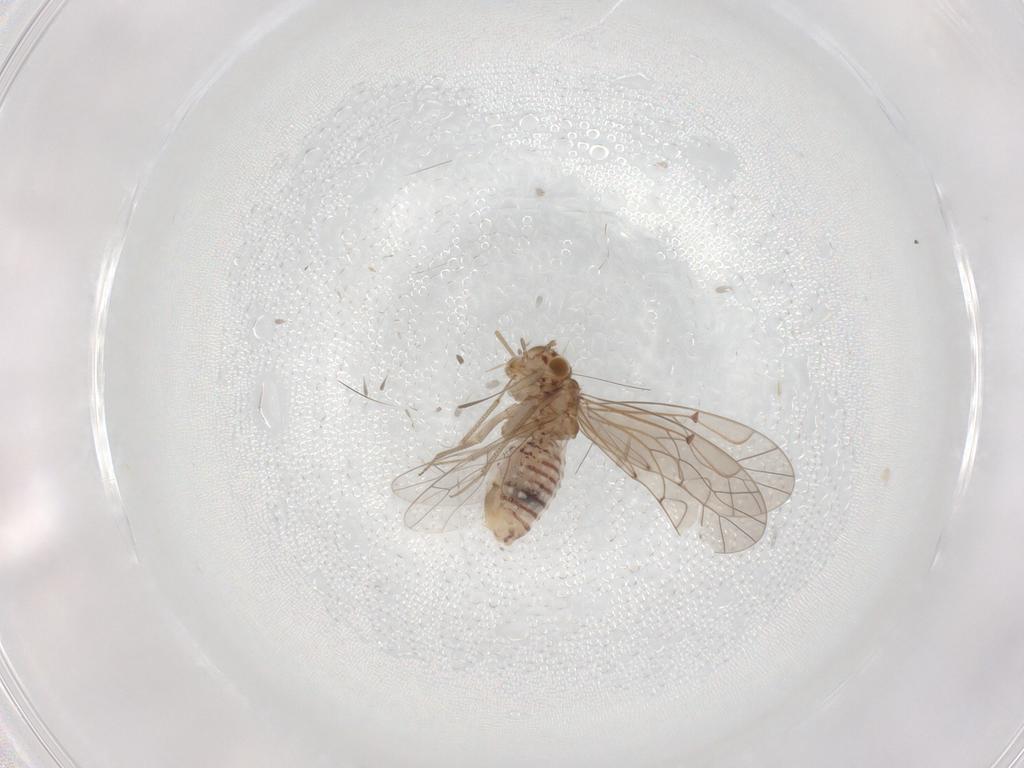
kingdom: Animalia
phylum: Arthropoda
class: Insecta
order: Psocodea
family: Lachesillidae
